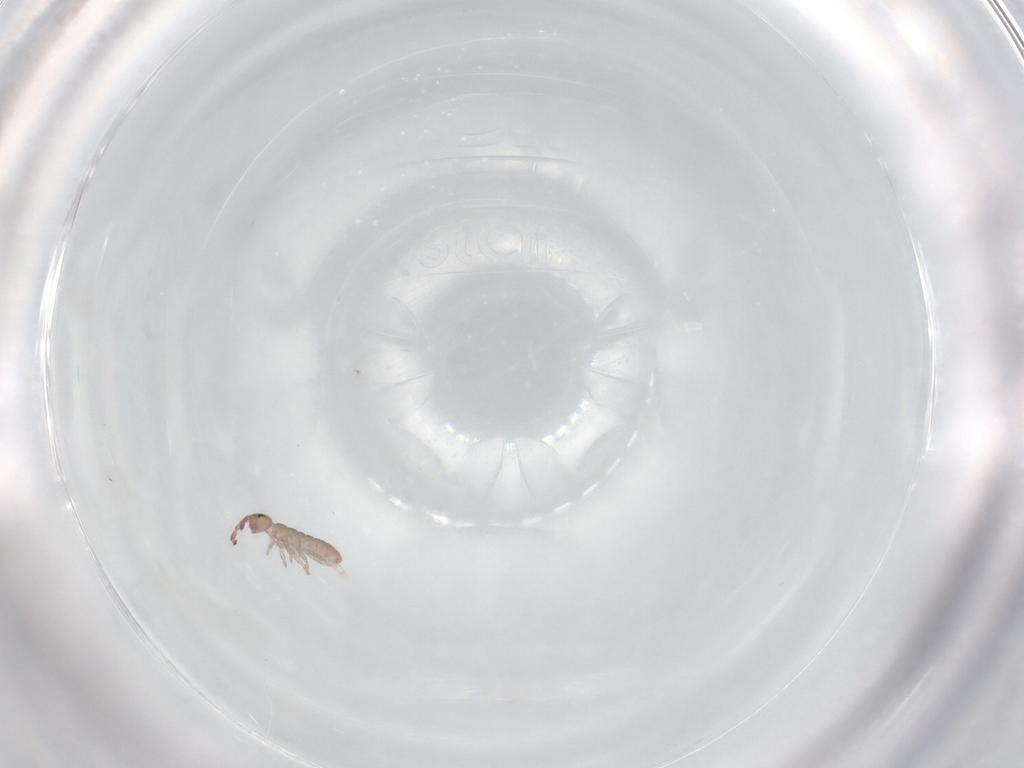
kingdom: Animalia
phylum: Arthropoda
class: Collembola
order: Entomobryomorpha
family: Isotomidae
